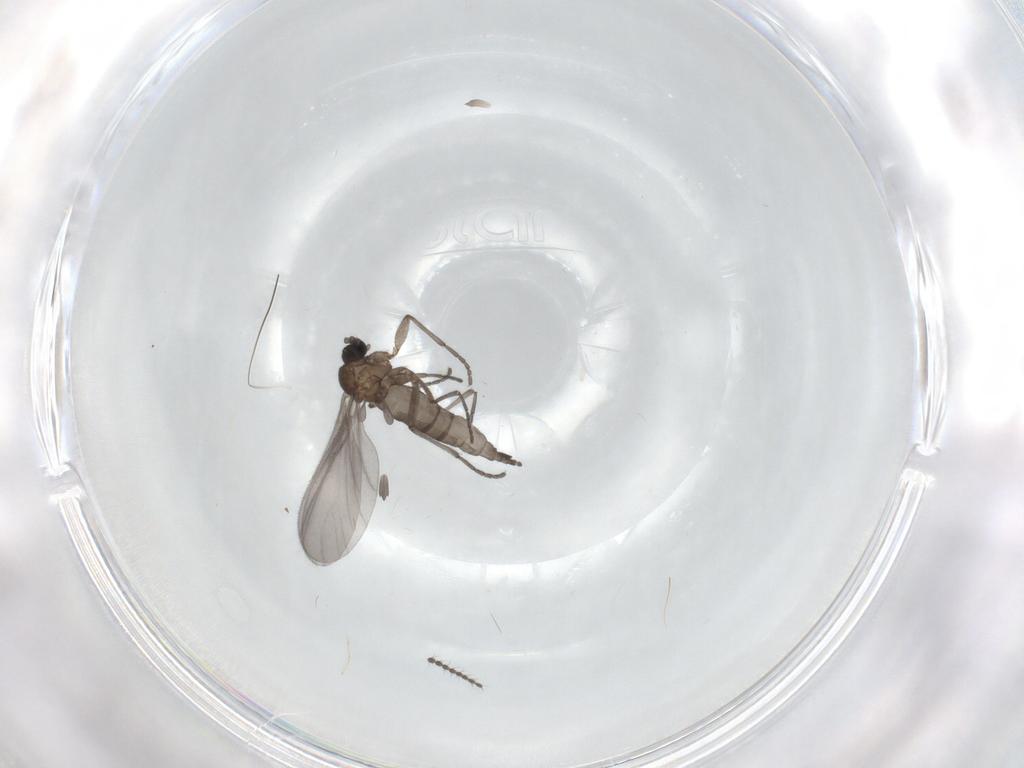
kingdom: Animalia
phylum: Arthropoda
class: Insecta
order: Diptera
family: Sciaridae
